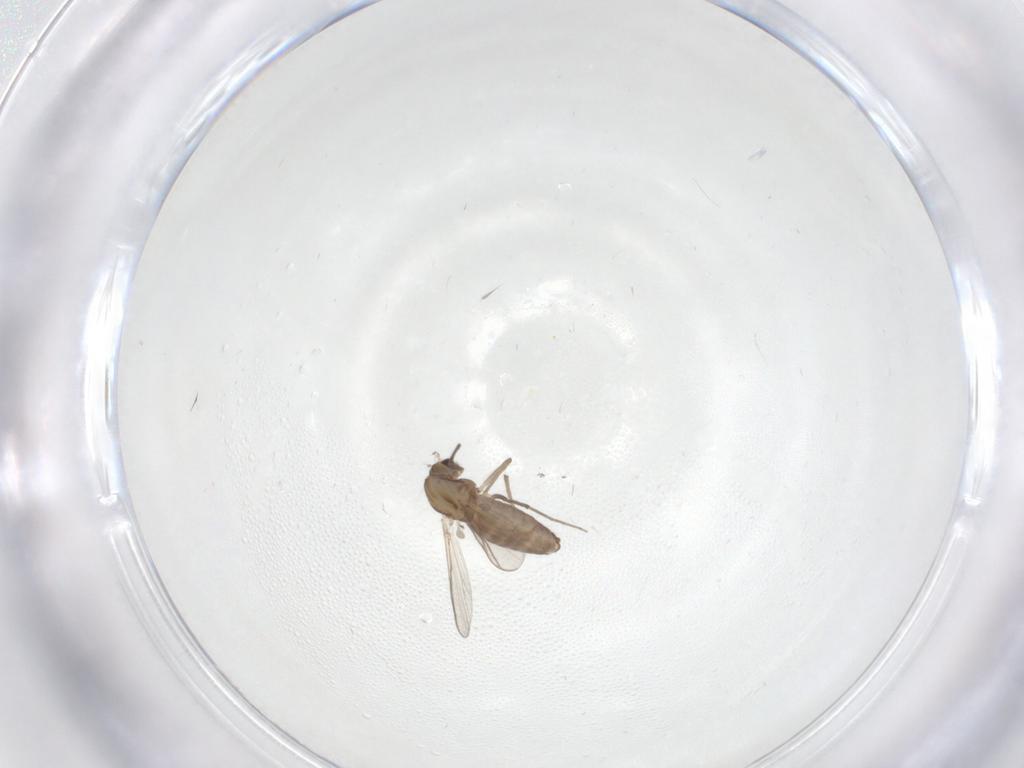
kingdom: Animalia
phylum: Arthropoda
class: Insecta
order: Diptera
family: Chironomidae
